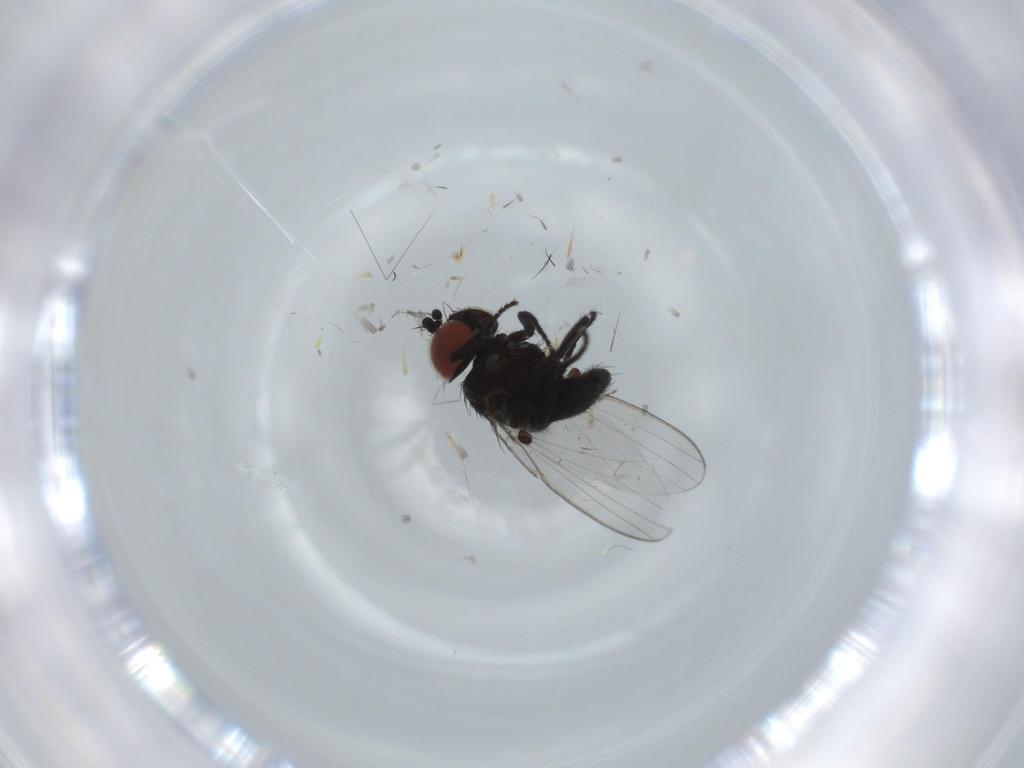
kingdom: Animalia
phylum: Arthropoda
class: Insecta
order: Diptera
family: Milichiidae
